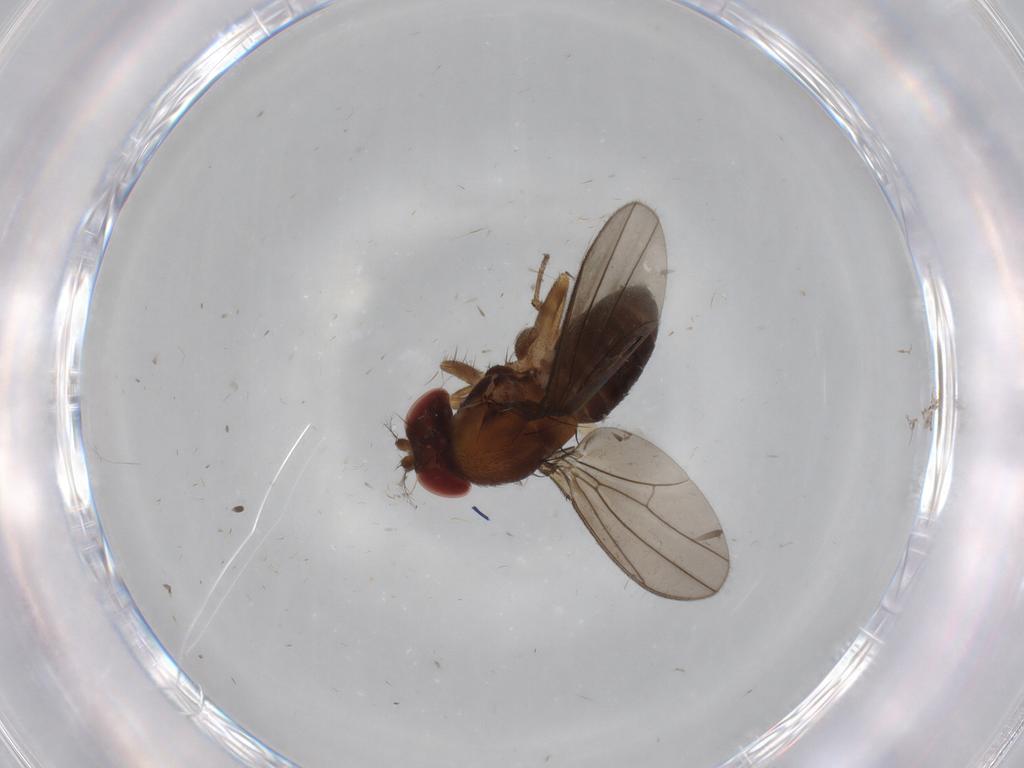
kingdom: Animalia
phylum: Arthropoda
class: Insecta
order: Diptera
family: Drosophilidae
